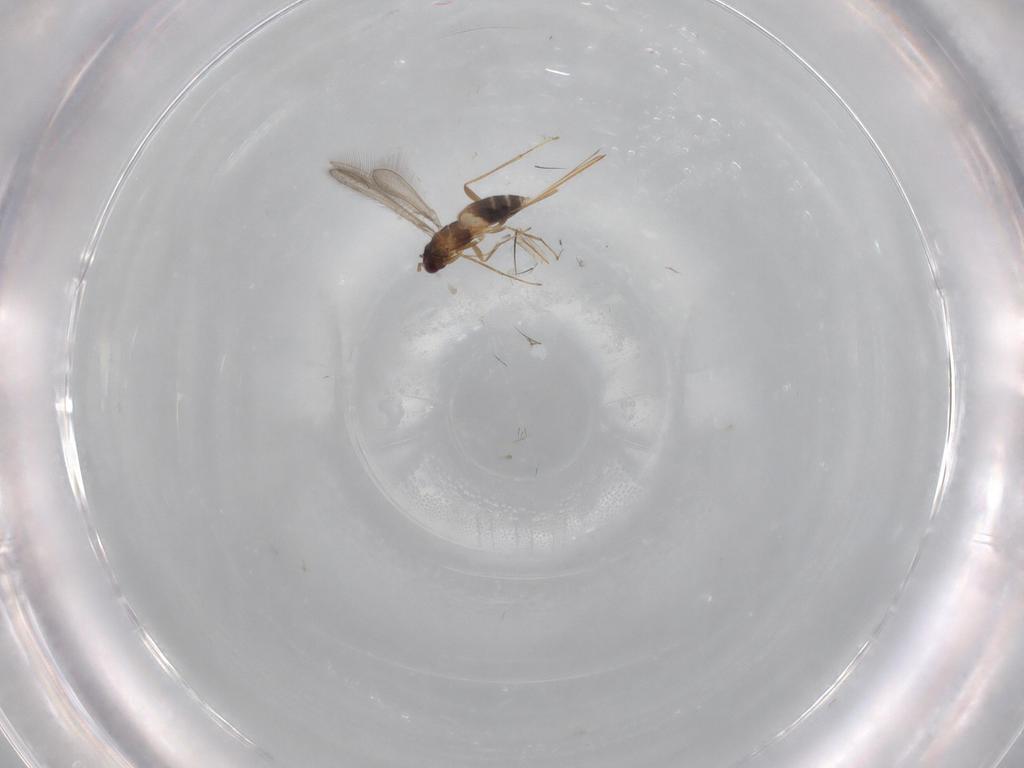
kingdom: Animalia
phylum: Arthropoda
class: Insecta
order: Hymenoptera
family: Mymaridae
